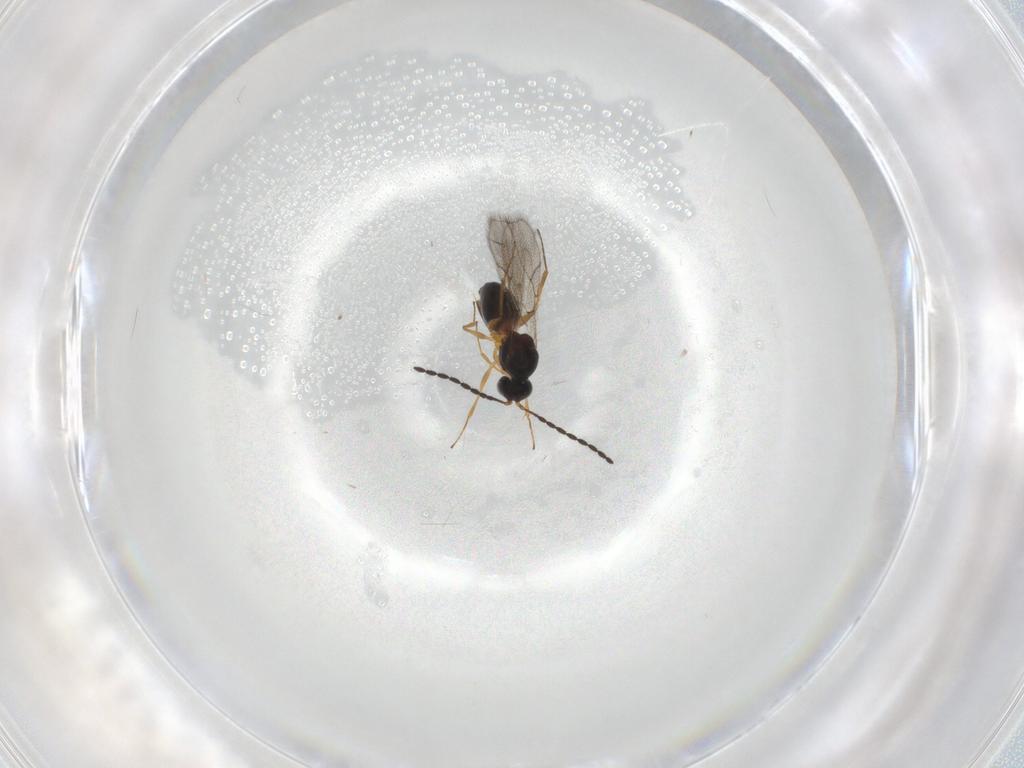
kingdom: Animalia
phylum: Arthropoda
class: Insecta
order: Hymenoptera
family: Figitidae
